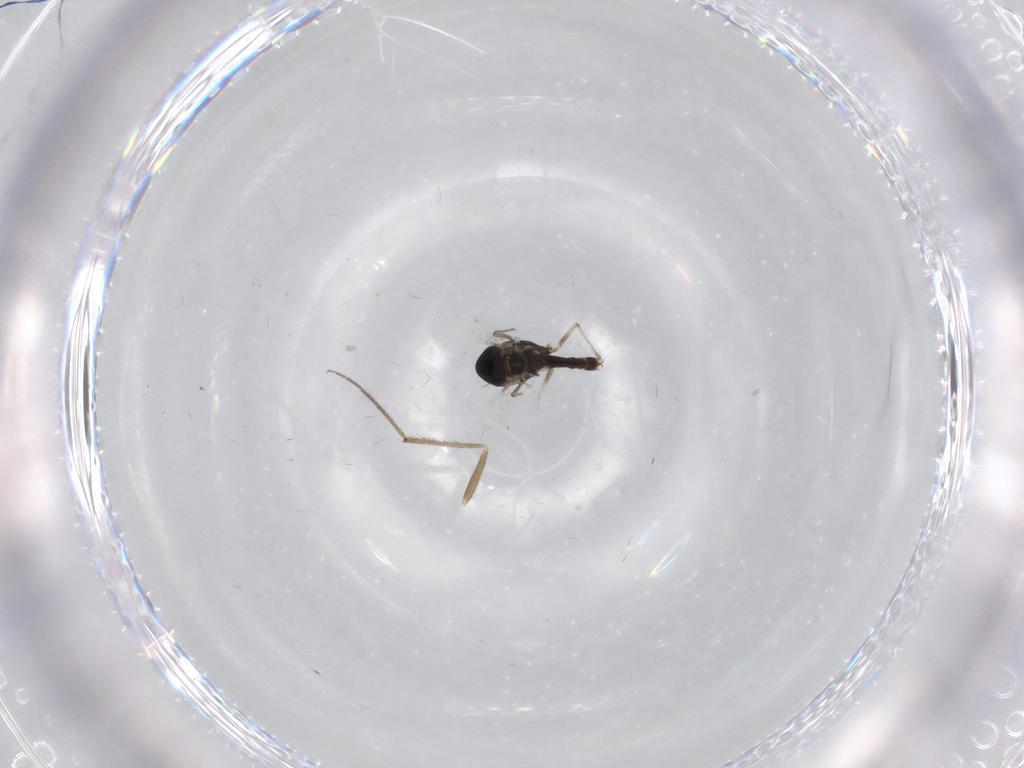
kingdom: Animalia
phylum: Arthropoda
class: Insecta
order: Diptera
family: Chironomidae
